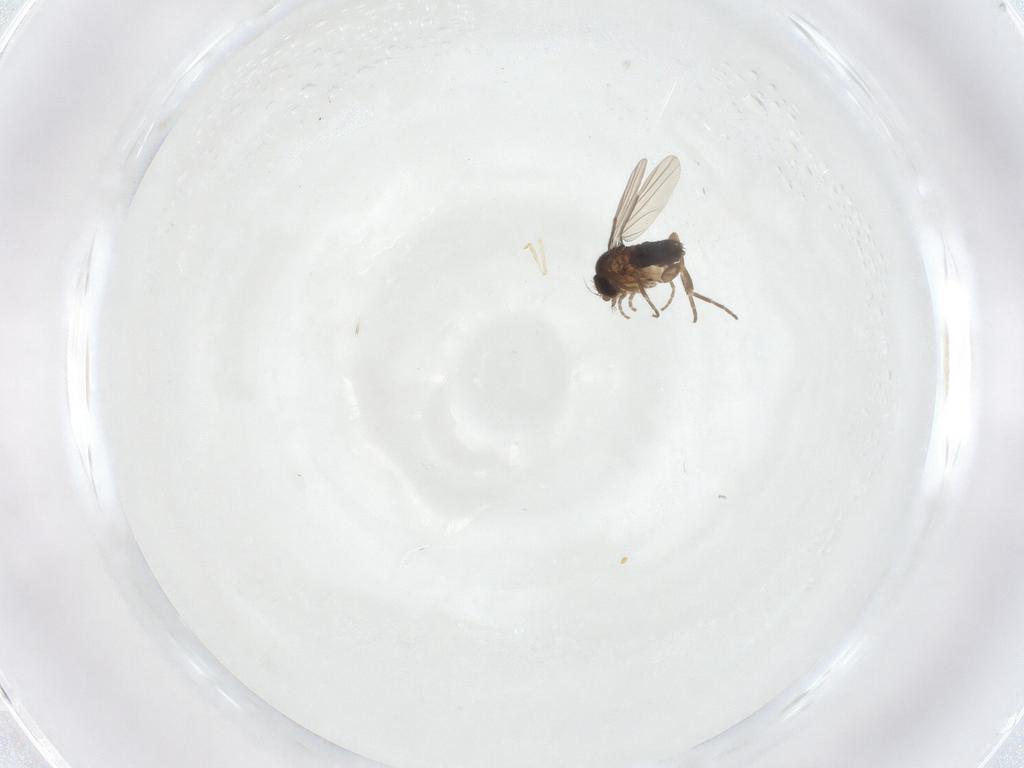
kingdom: Animalia
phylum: Arthropoda
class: Insecta
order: Diptera
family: Phoridae
